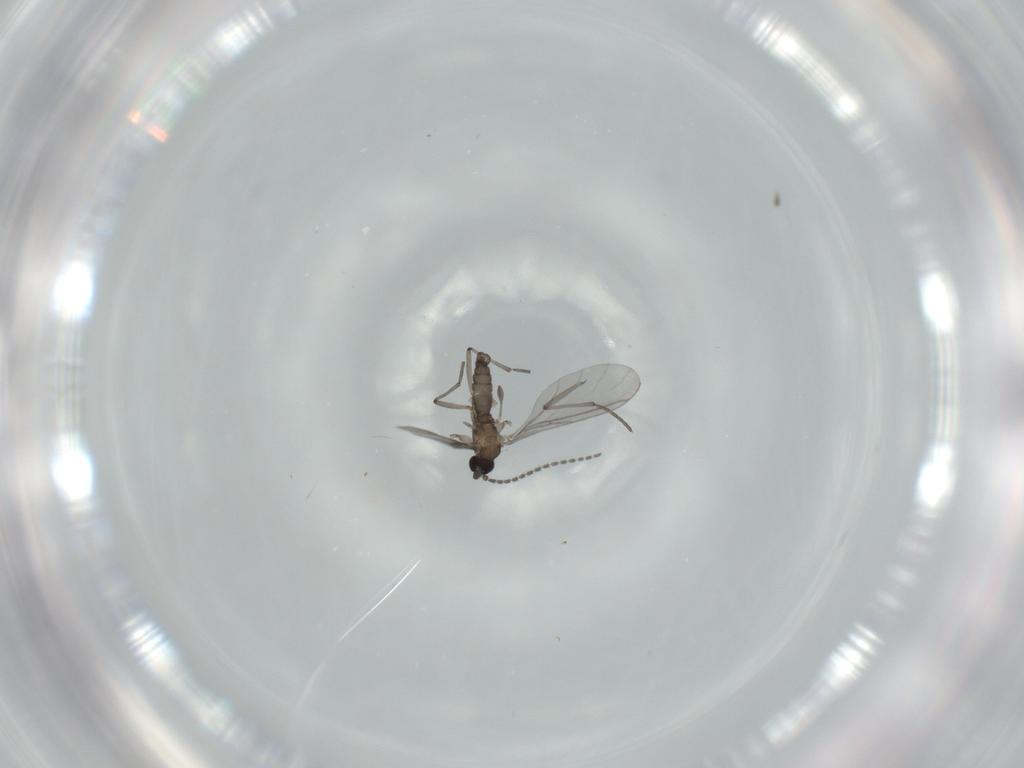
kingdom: Animalia
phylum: Arthropoda
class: Insecta
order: Diptera
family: Sciaridae
